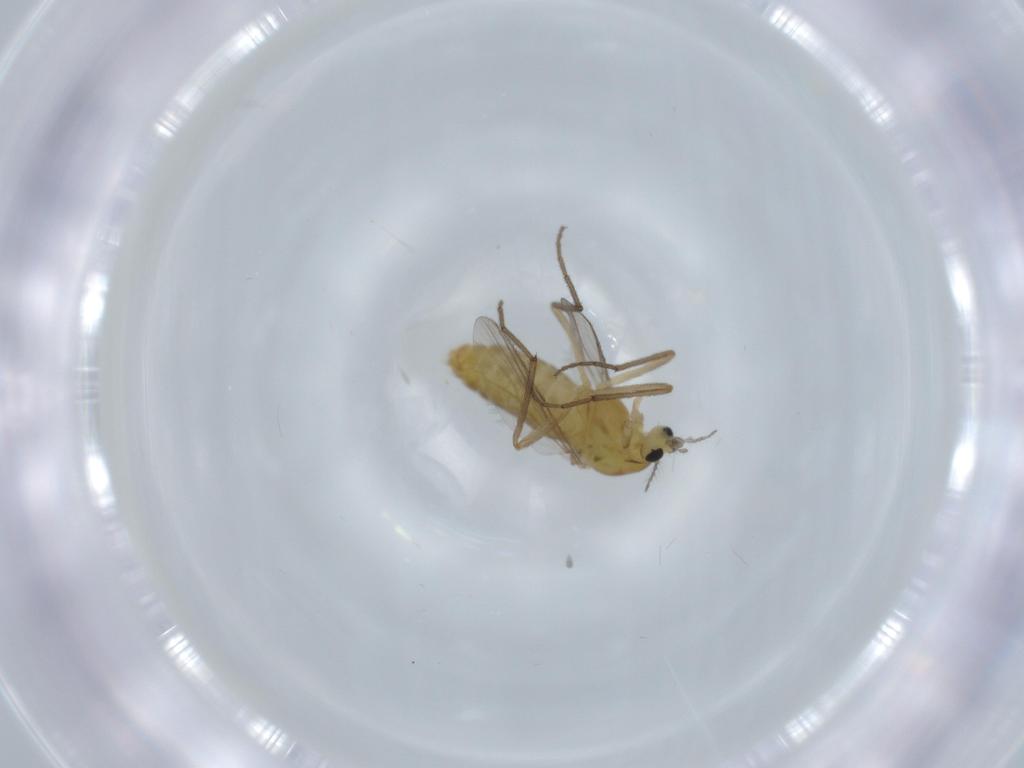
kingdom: Animalia
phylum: Arthropoda
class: Insecta
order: Diptera
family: Chironomidae
